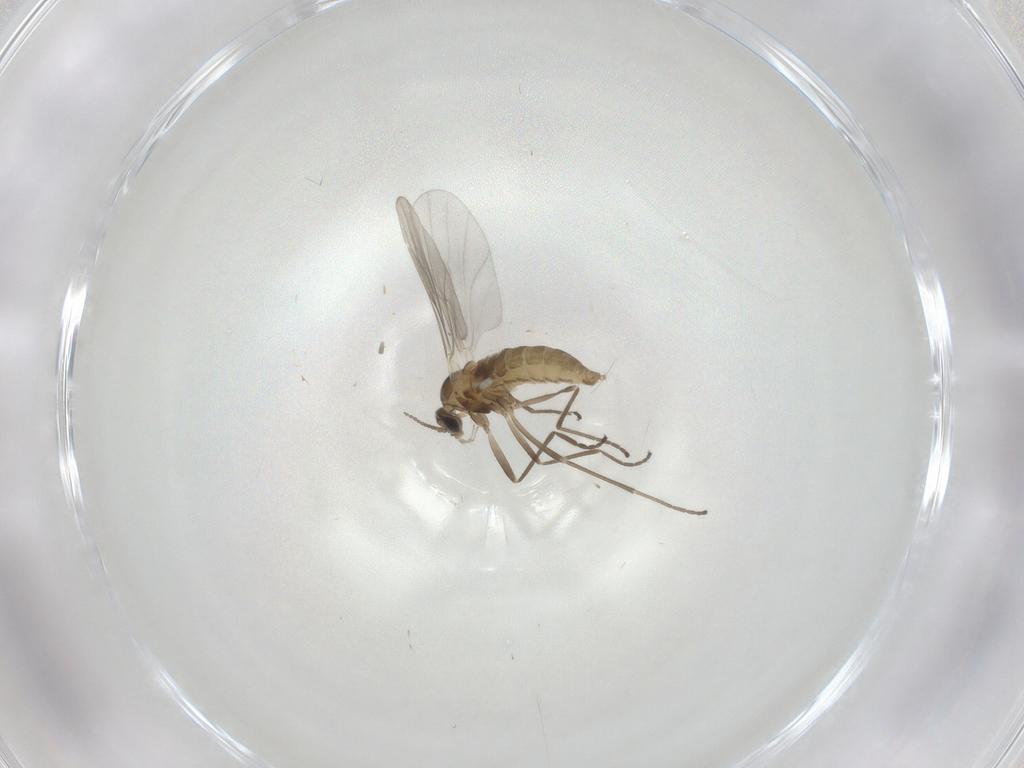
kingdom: Animalia
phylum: Arthropoda
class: Insecta
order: Diptera
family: Cecidomyiidae
